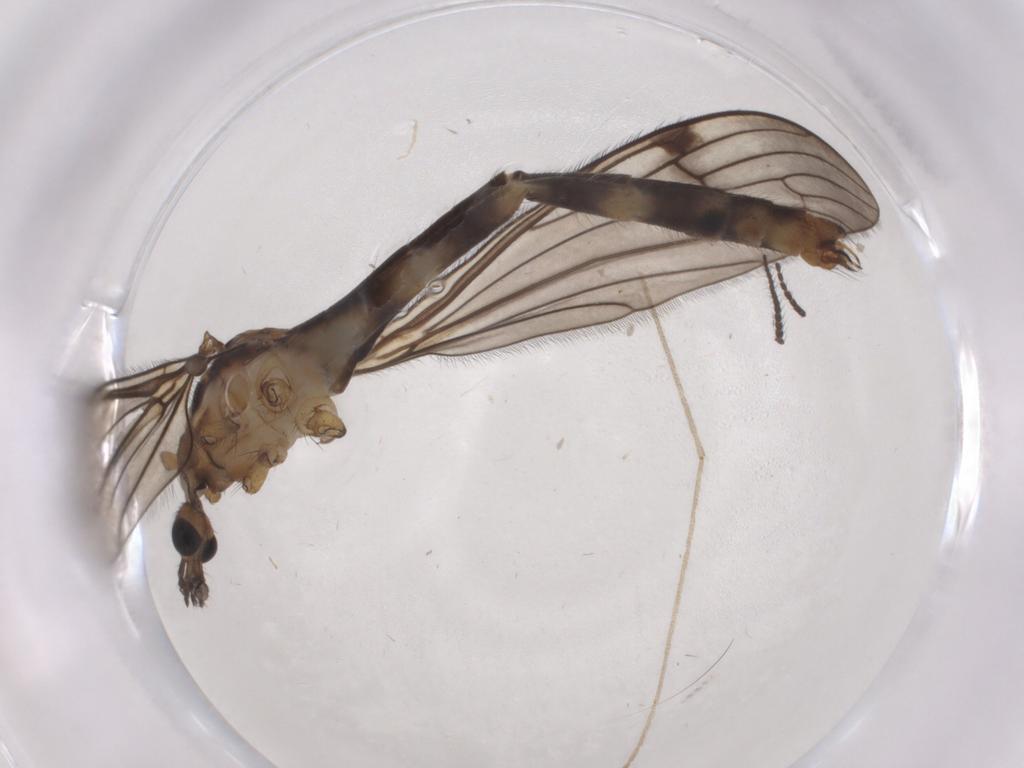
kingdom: Animalia
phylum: Arthropoda
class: Insecta
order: Diptera
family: Limoniidae
